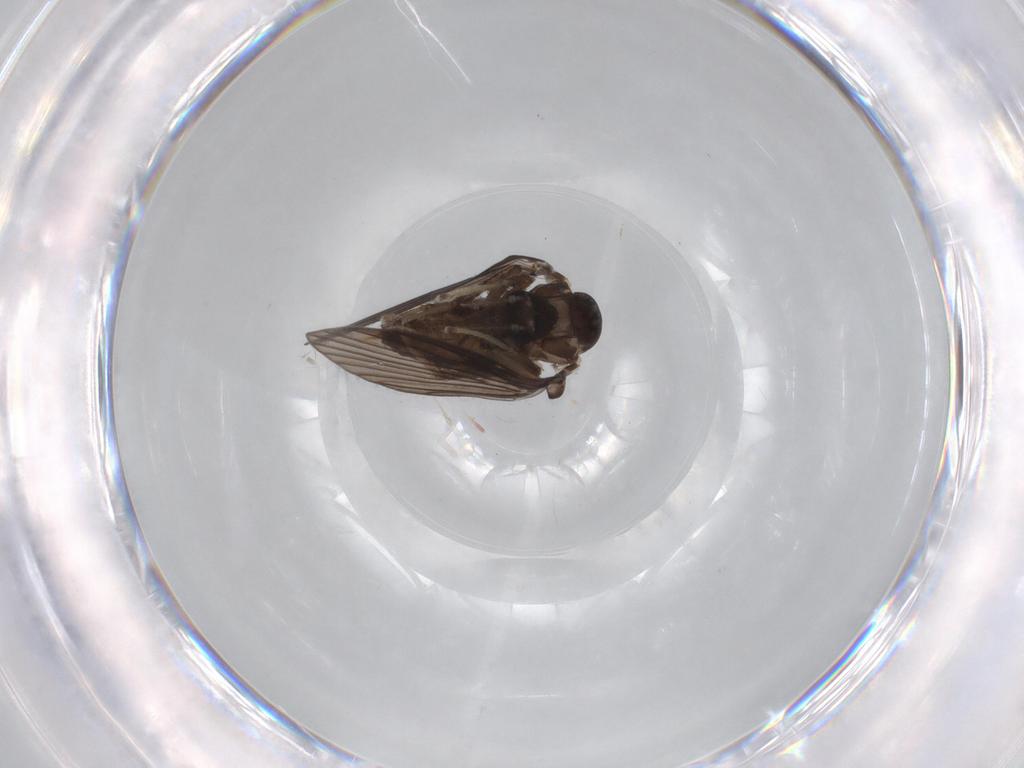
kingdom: Animalia
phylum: Arthropoda
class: Insecta
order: Diptera
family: Psychodidae
